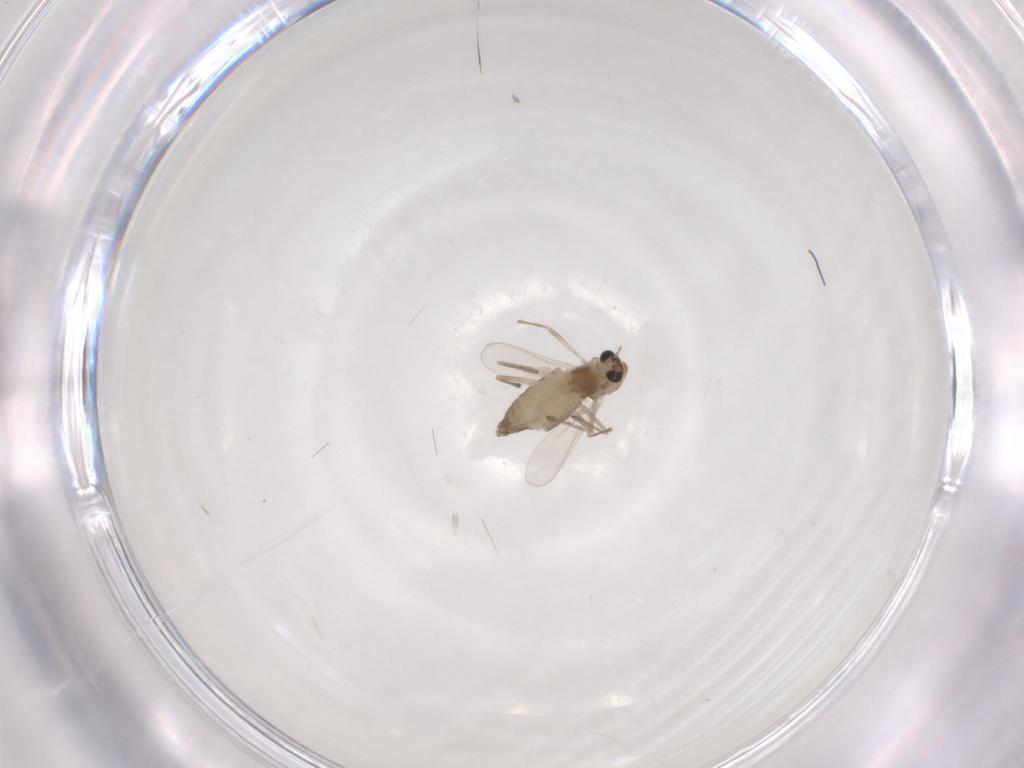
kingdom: Animalia
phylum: Arthropoda
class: Insecta
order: Diptera
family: Chironomidae
